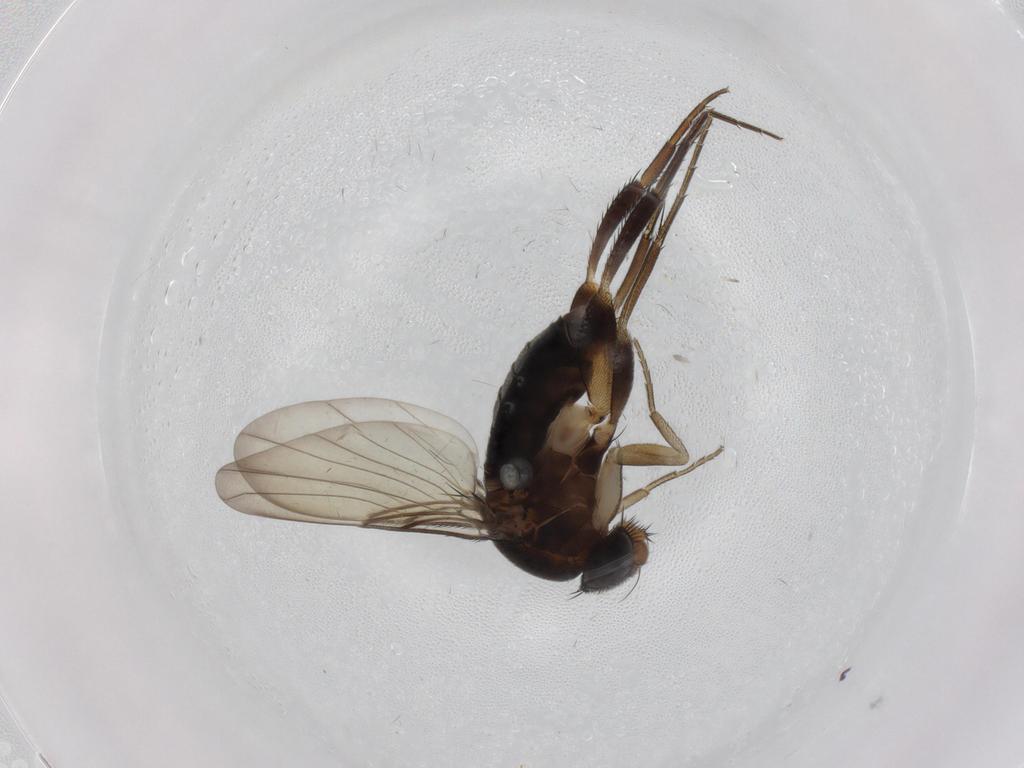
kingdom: Animalia
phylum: Arthropoda
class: Insecta
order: Diptera
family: Phoridae
